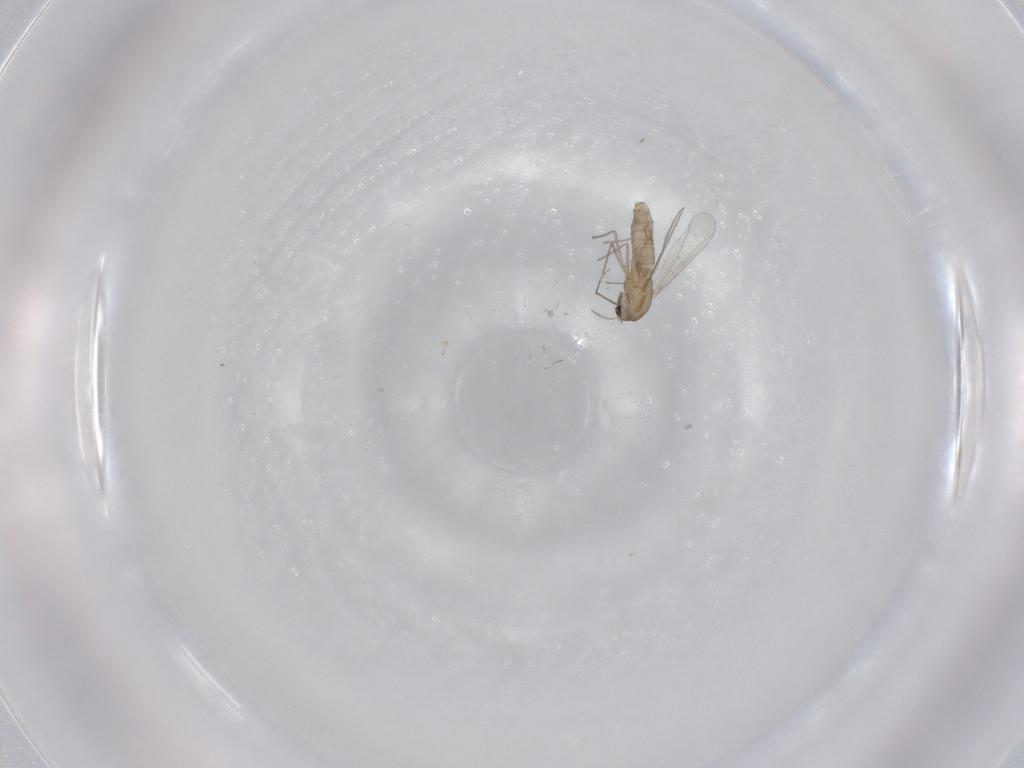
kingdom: Animalia
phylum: Arthropoda
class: Insecta
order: Diptera
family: Chironomidae
